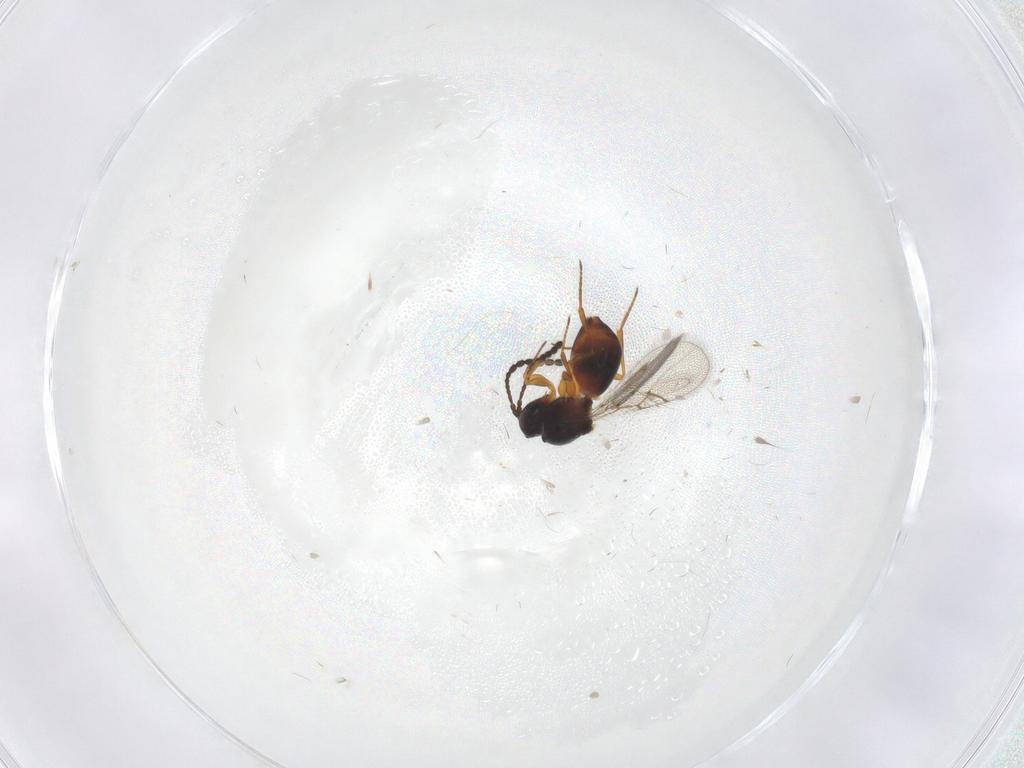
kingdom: Animalia
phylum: Arthropoda
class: Insecta
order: Hymenoptera
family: Figitidae
